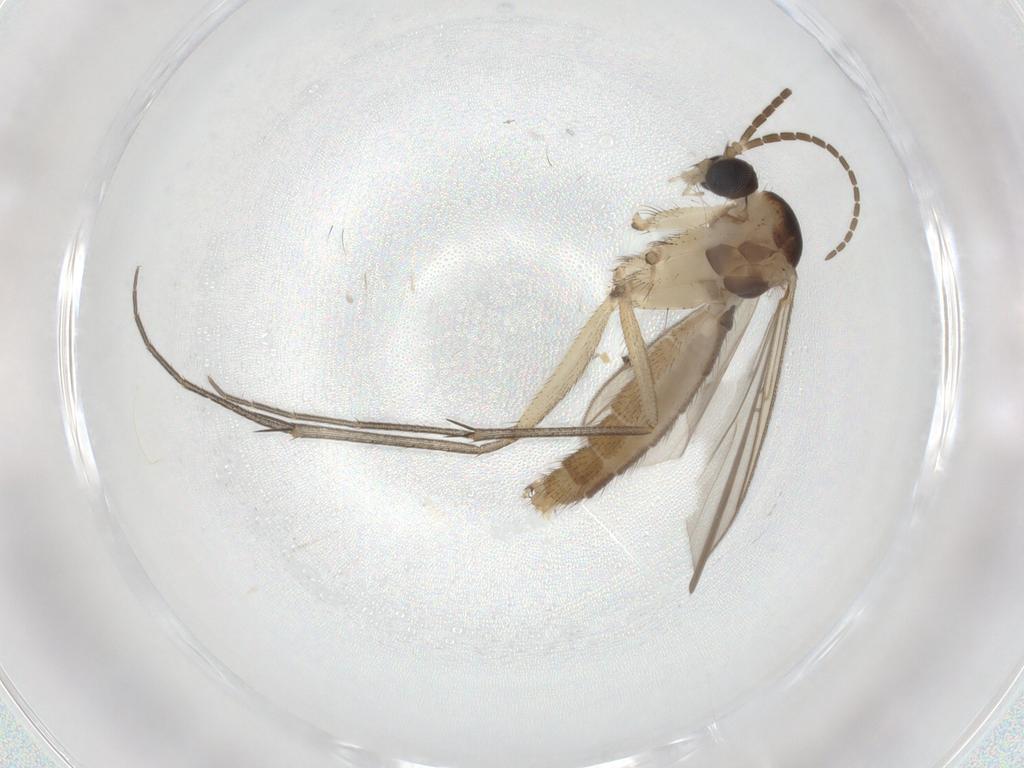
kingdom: Animalia
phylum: Arthropoda
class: Insecta
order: Diptera
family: Mycetophilidae
